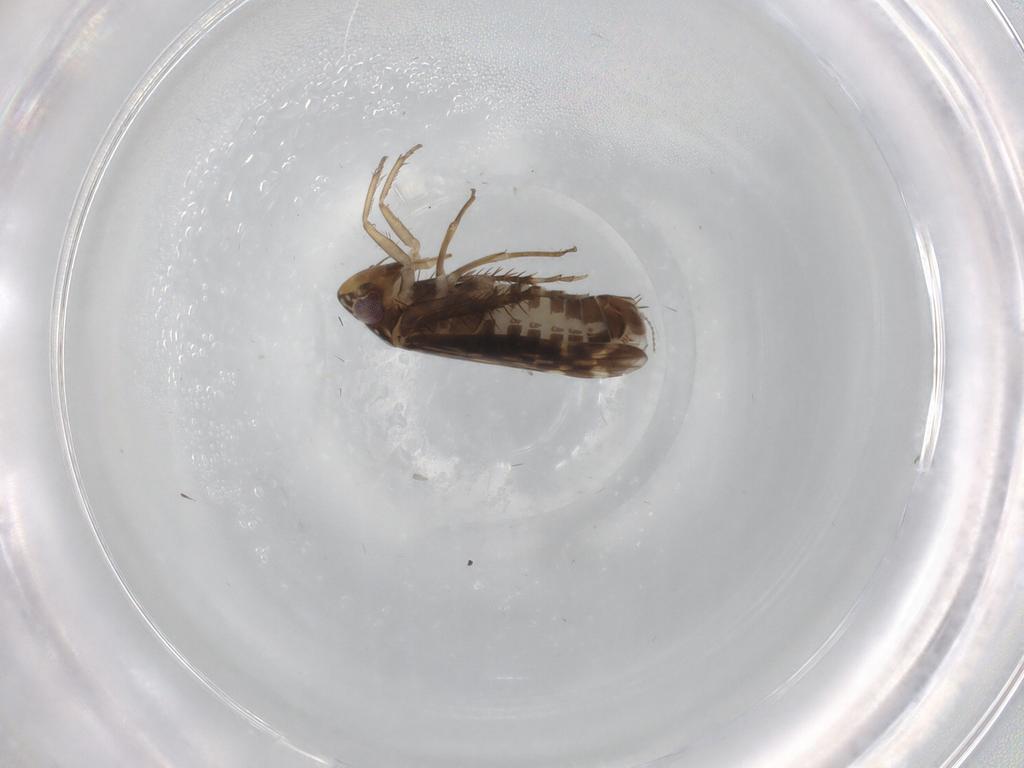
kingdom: Animalia
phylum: Arthropoda
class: Insecta
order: Hemiptera
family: Cicadellidae
